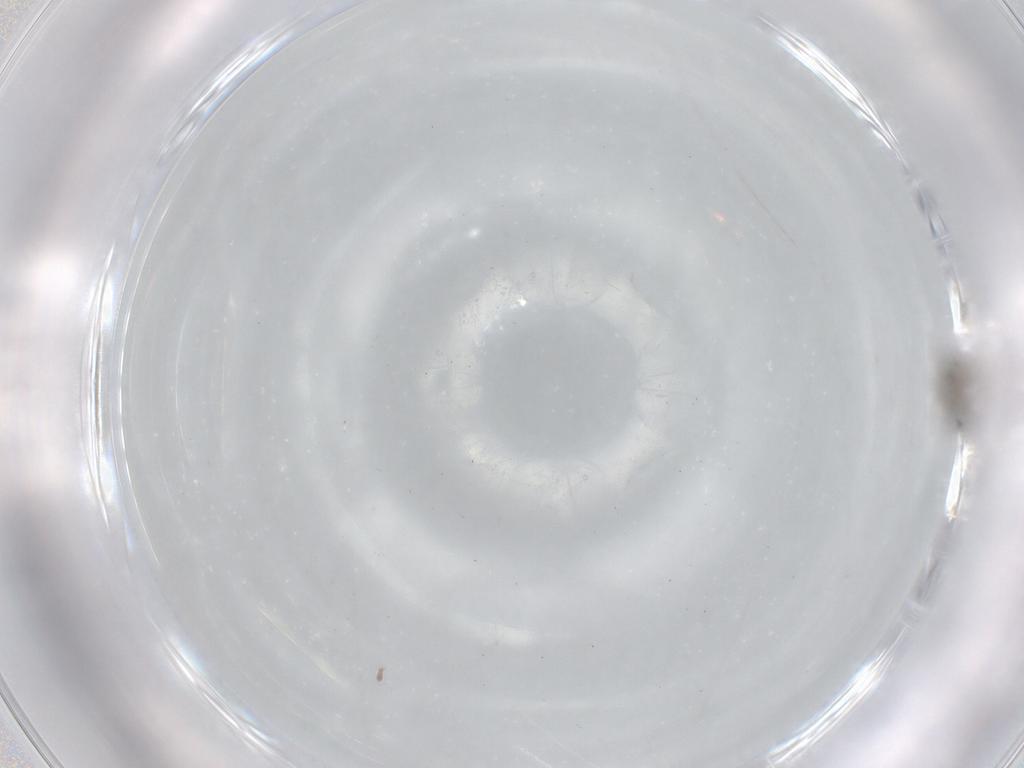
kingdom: Animalia
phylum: Arthropoda
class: Insecta
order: Diptera
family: Cecidomyiidae
